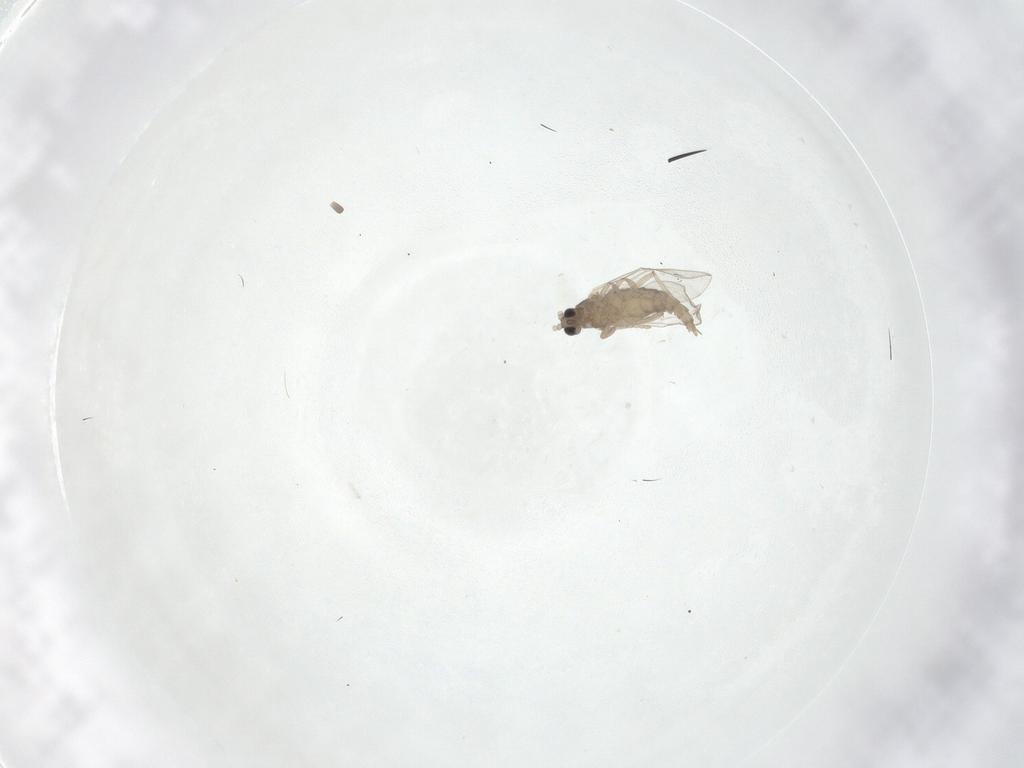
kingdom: Animalia
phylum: Arthropoda
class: Insecta
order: Diptera
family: Cecidomyiidae
